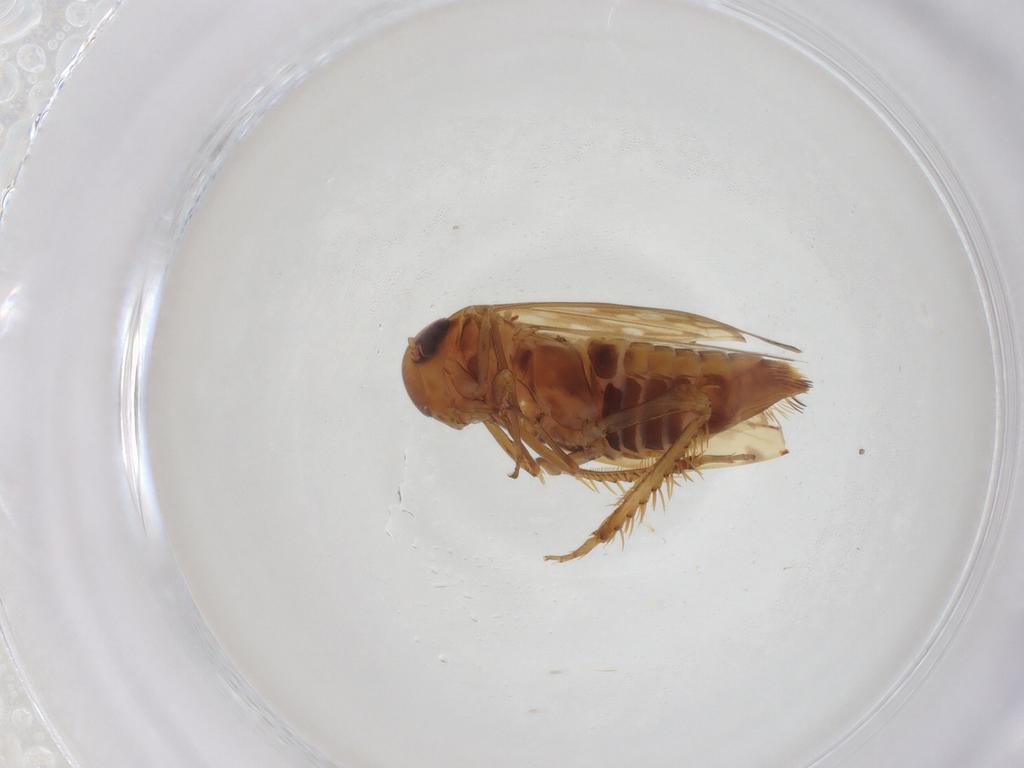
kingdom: Animalia
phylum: Arthropoda
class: Insecta
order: Hemiptera
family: Cicadellidae
